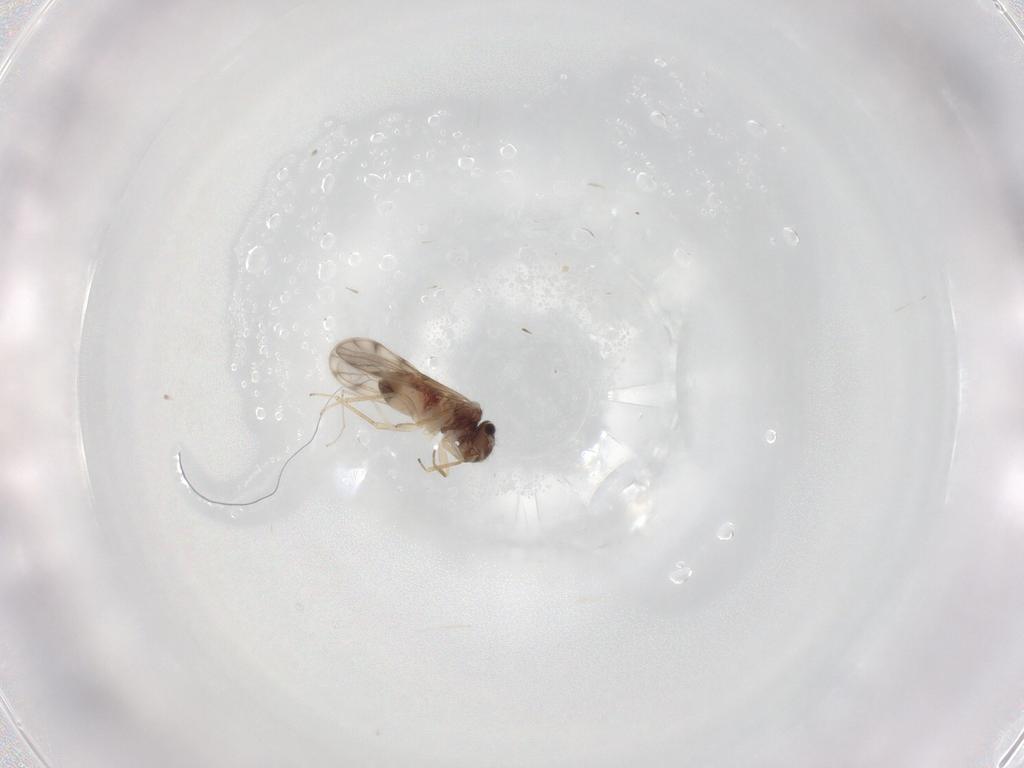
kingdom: Animalia
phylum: Arthropoda
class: Insecta
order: Psocodea
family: Peripsocidae
